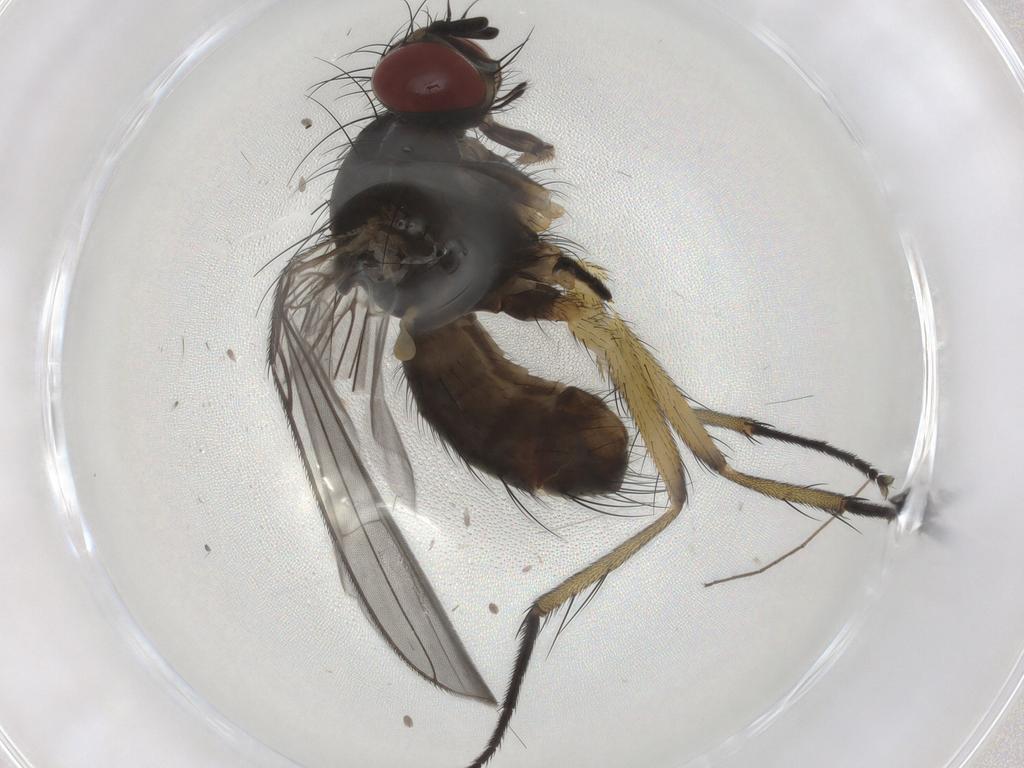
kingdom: Animalia
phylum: Arthropoda
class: Insecta
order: Diptera
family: Muscidae
